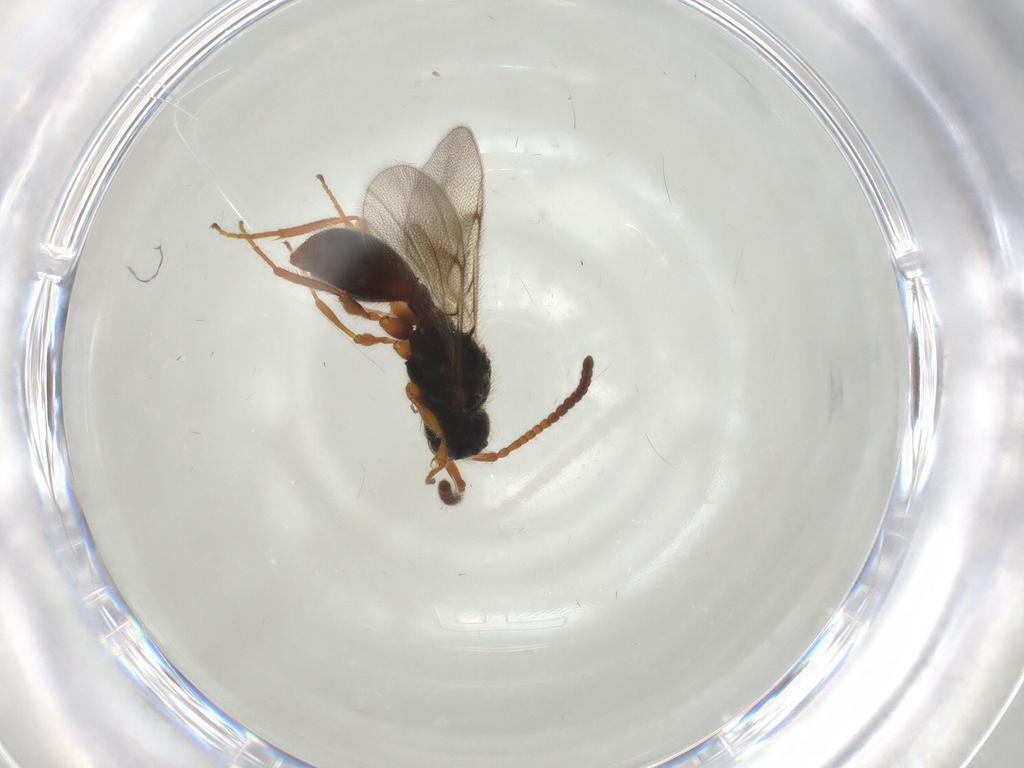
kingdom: Animalia
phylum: Arthropoda
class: Insecta
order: Hymenoptera
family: Diapriidae
